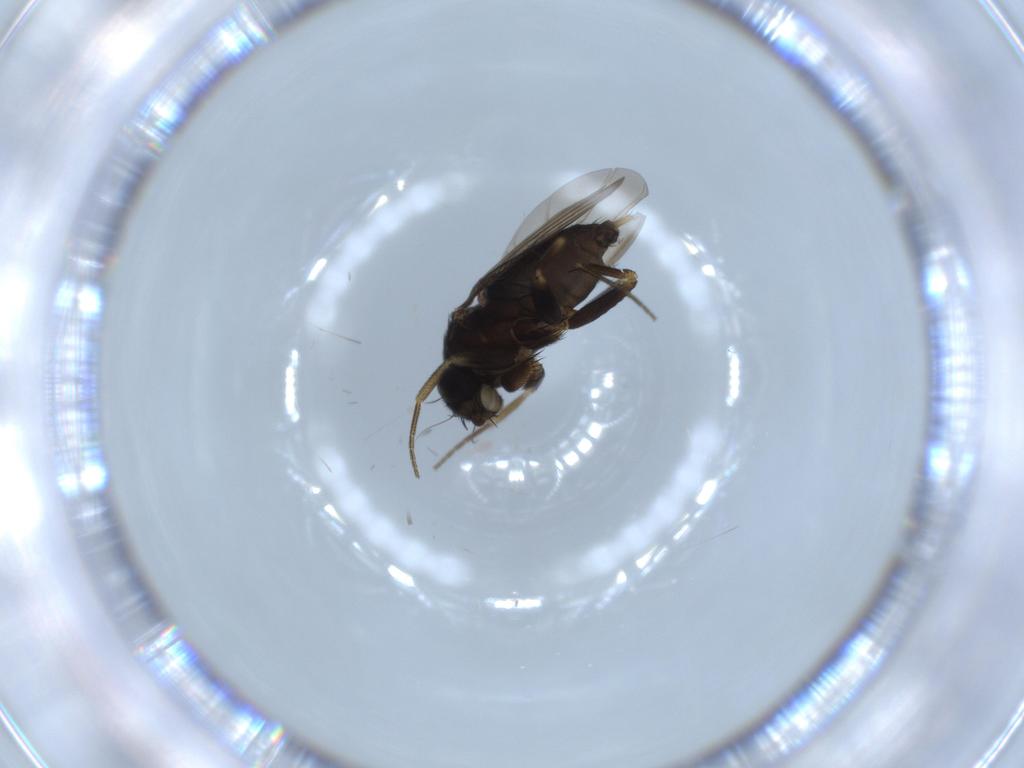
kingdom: Animalia
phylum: Arthropoda
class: Insecta
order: Diptera
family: Phoridae
